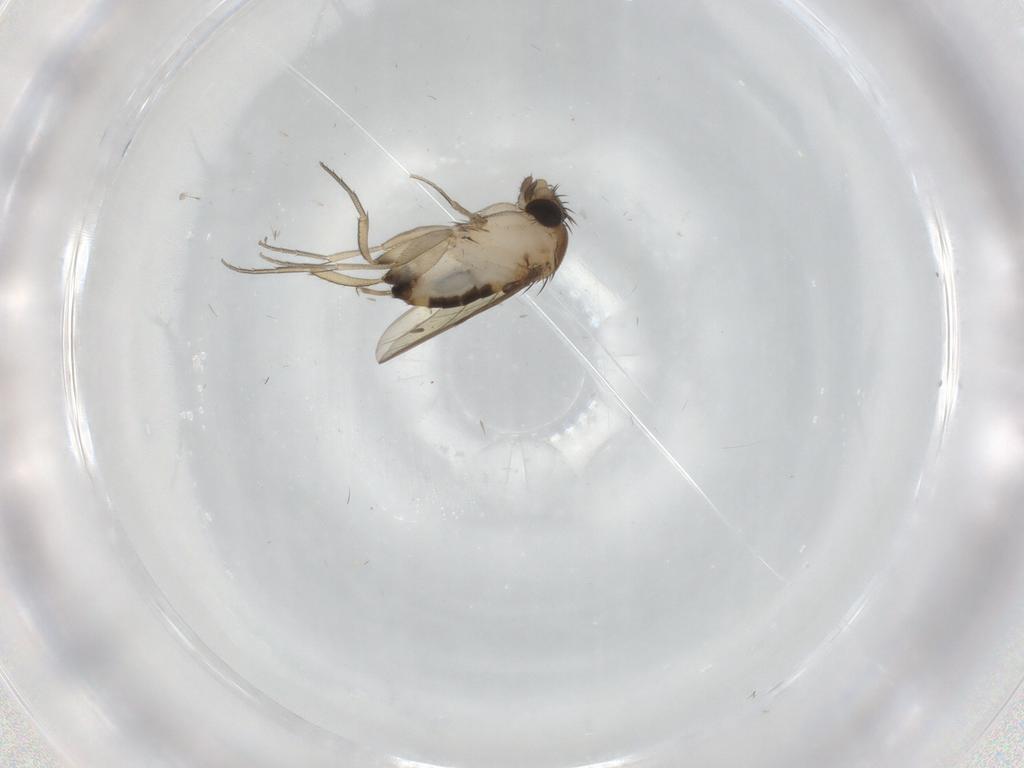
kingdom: Animalia
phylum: Arthropoda
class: Insecta
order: Diptera
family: Phoridae
